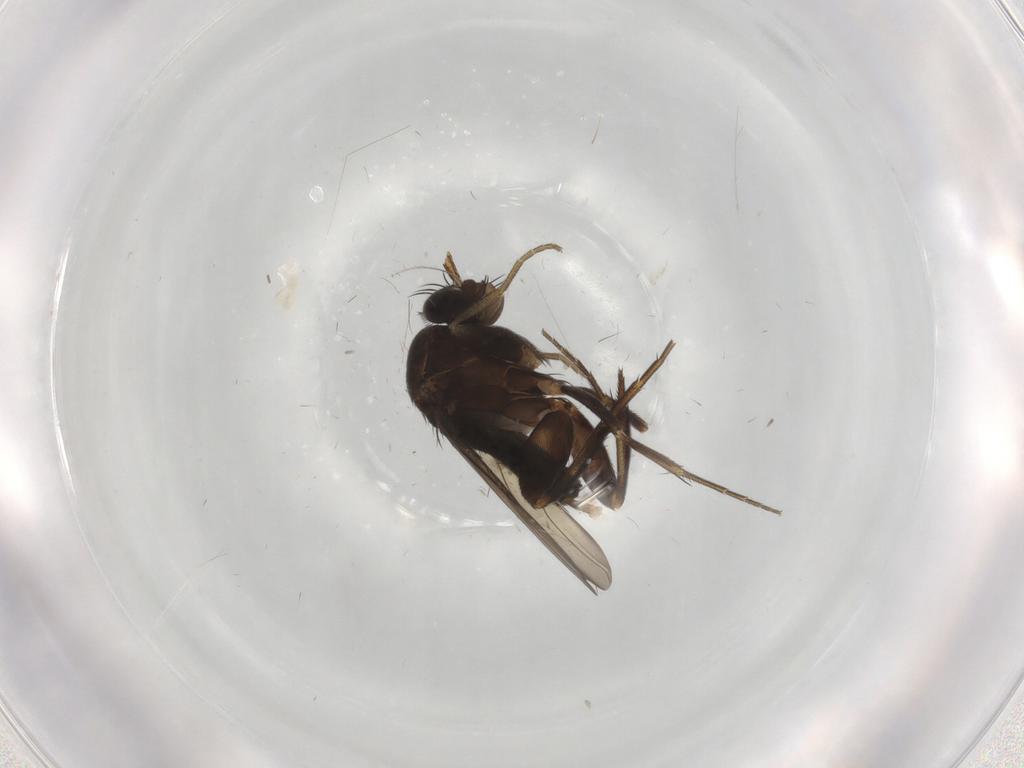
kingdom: Animalia
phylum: Arthropoda
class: Insecta
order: Diptera
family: Phoridae
